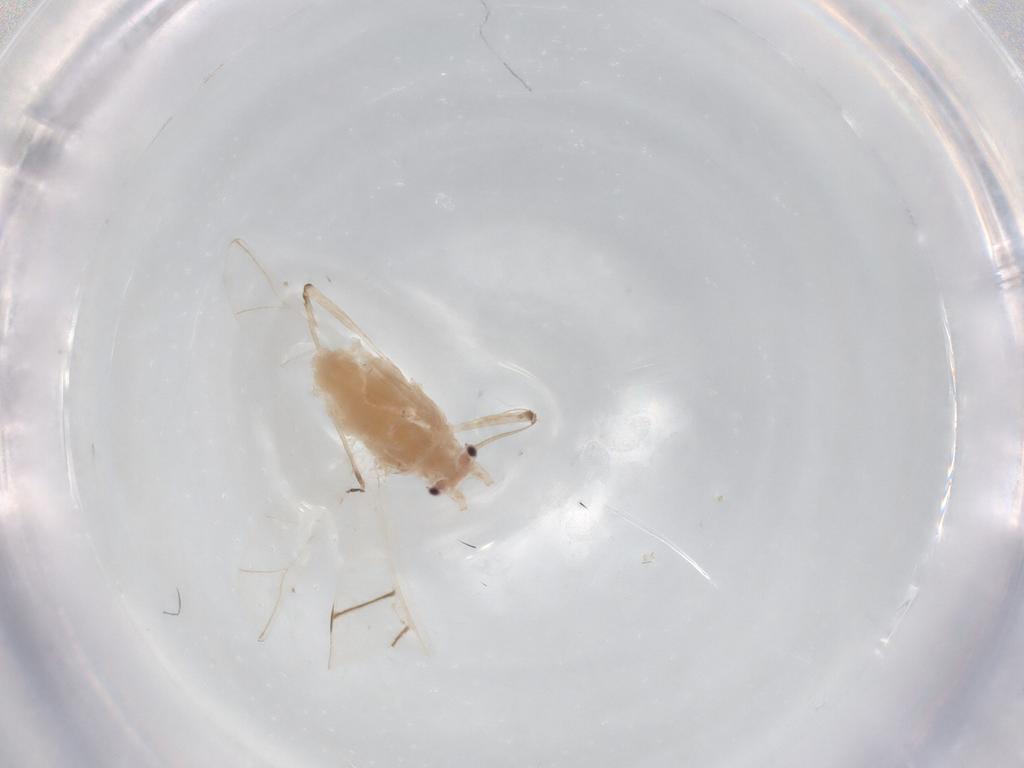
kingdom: Animalia
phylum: Arthropoda
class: Insecta
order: Hemiptera
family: Aphididae
